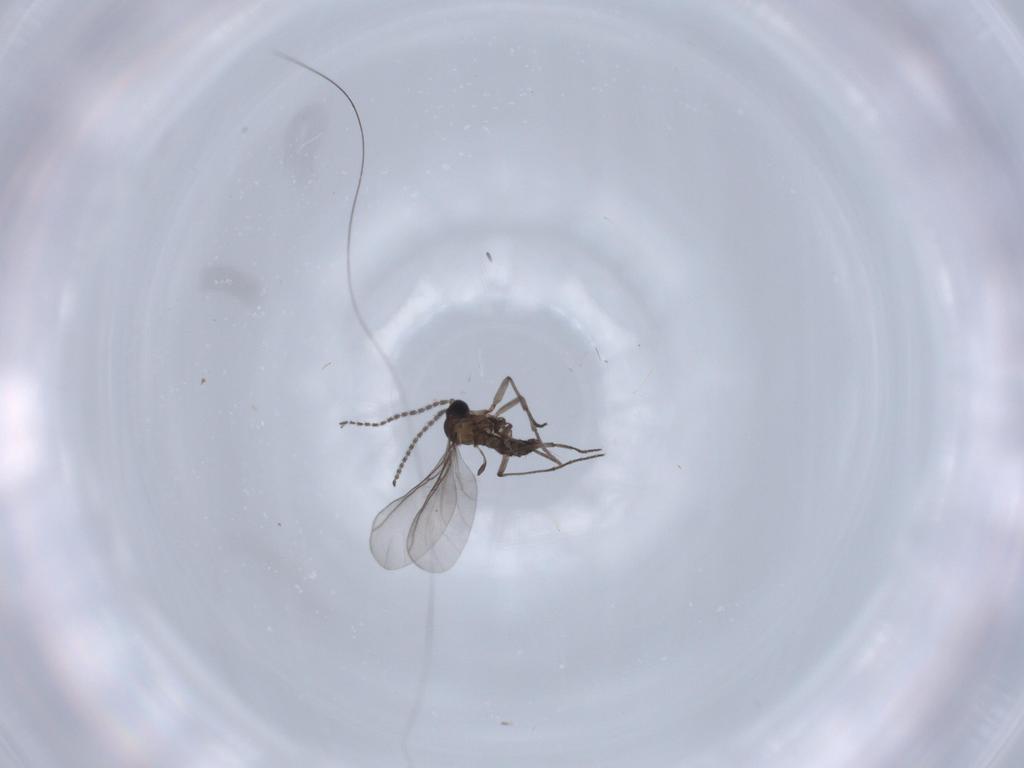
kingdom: Animalia
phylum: Arthropoda
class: Insecta
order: Diptera
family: Sciaridae
